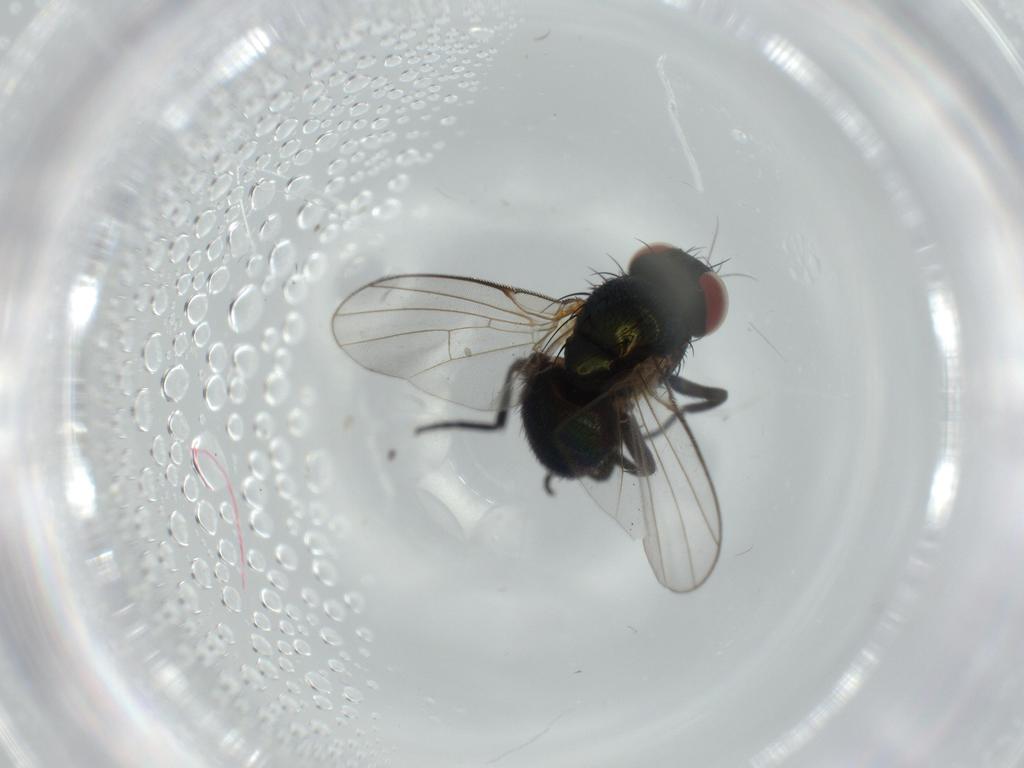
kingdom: Animalia
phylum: Arthropoda
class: Insecta
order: Diptera
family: Agromyzidae
